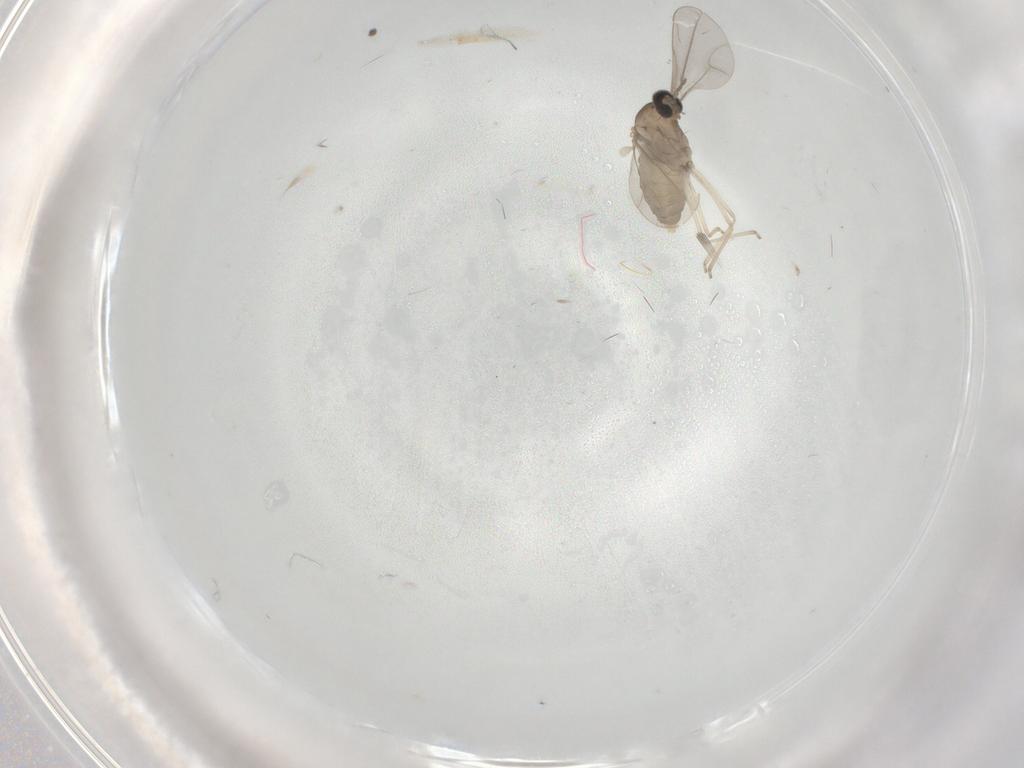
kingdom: Animalia
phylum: Arthropoda
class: Insecta
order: Diptera
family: Cecidomyiidae
